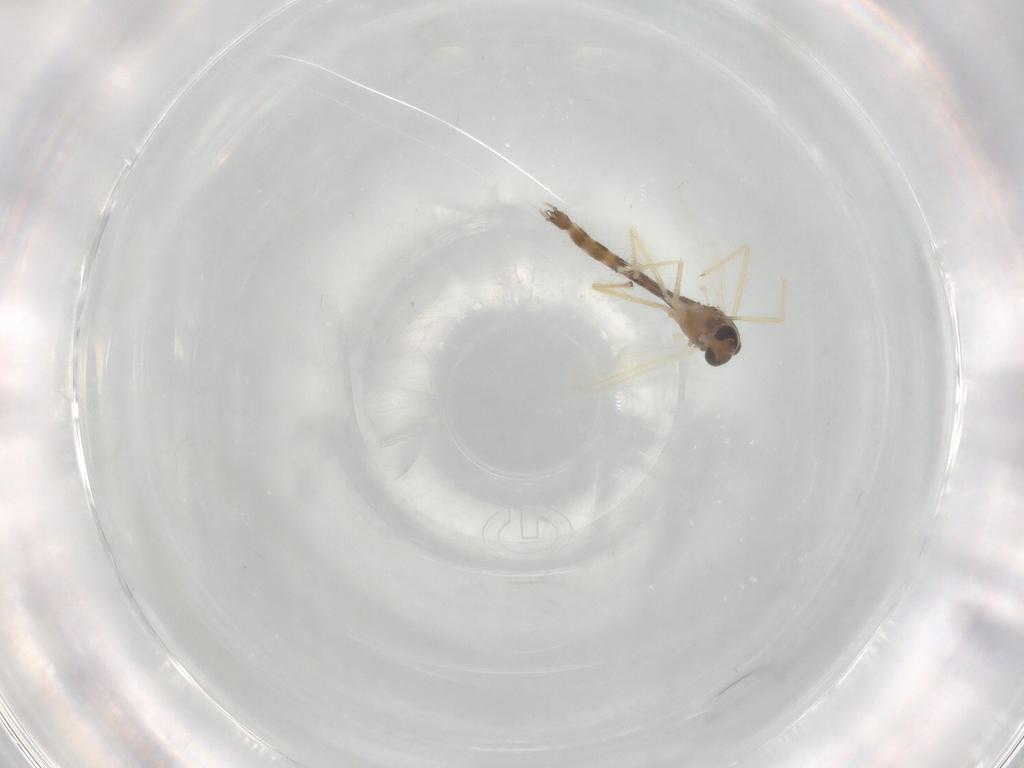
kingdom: Animalia
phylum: Arthropoda
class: Insecta
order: Diptera
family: Chironomidae
